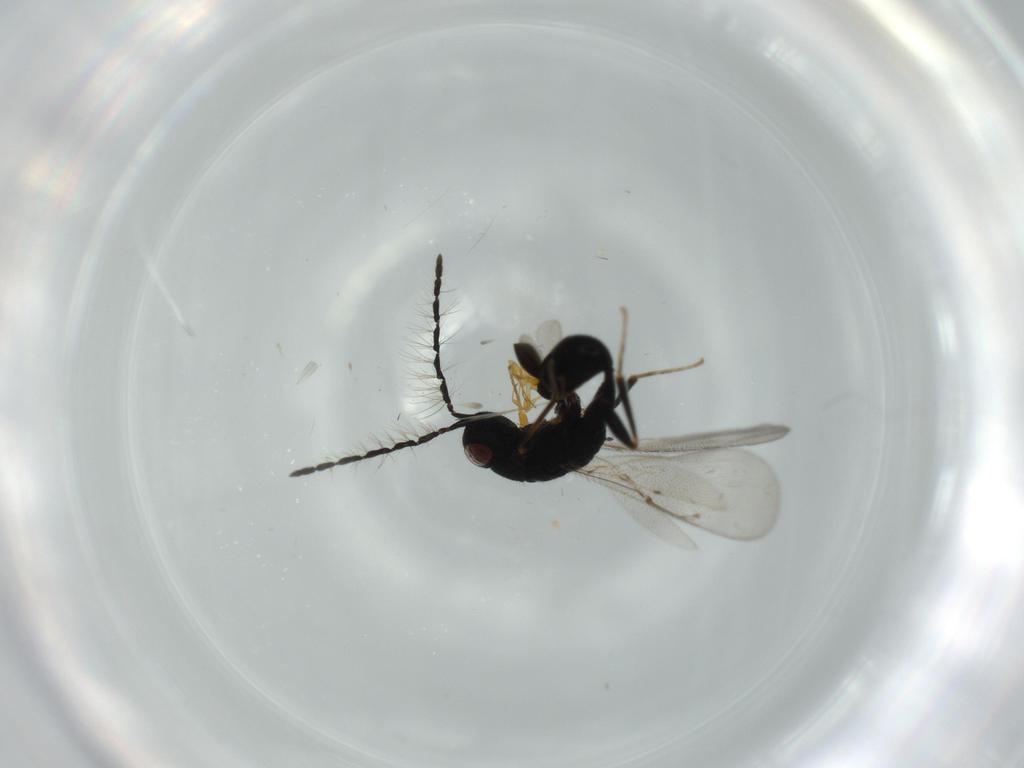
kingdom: Animalia
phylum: Arthropoda
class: Insecta
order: Hymenoptera
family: Scelionidae
